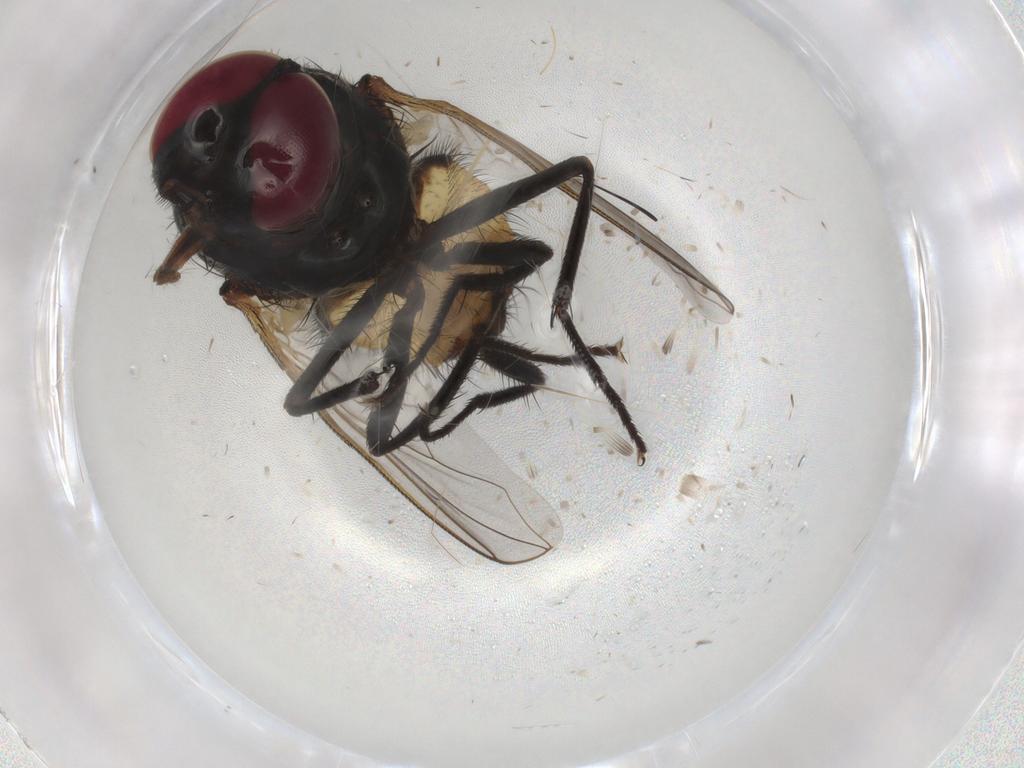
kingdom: Animalia
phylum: Arthropoda
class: Insecta
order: Diptera
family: Muscidae
